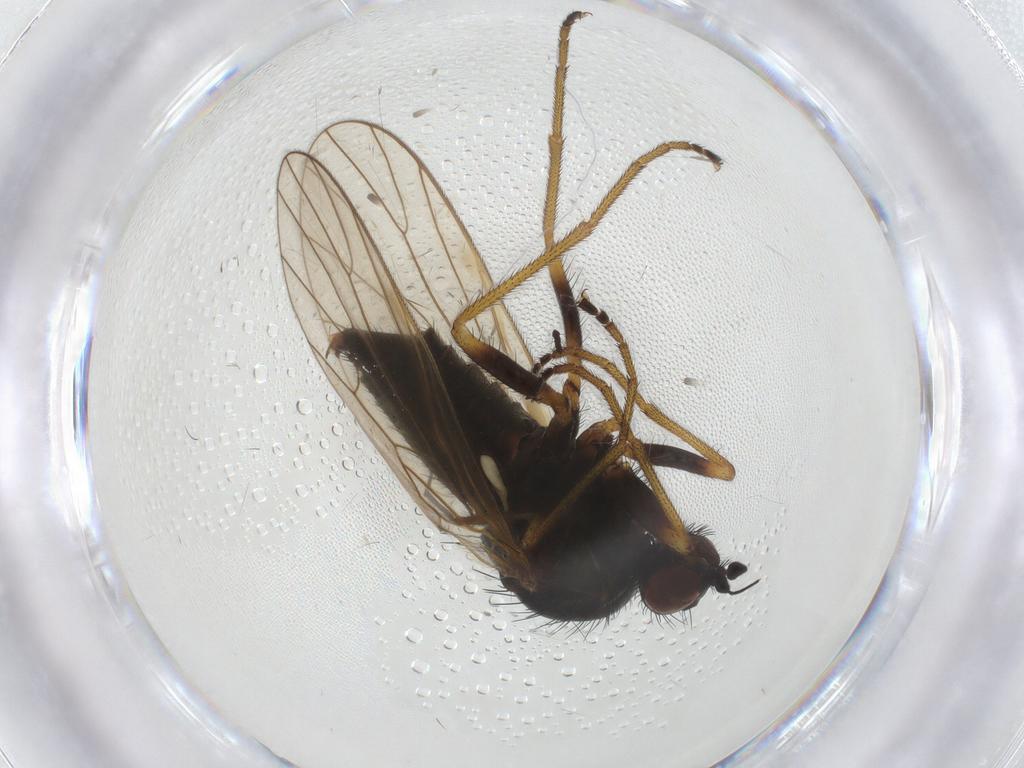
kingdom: Animalia
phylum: Arthropoda
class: Insecta
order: Diptera
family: Brachystomatidae
